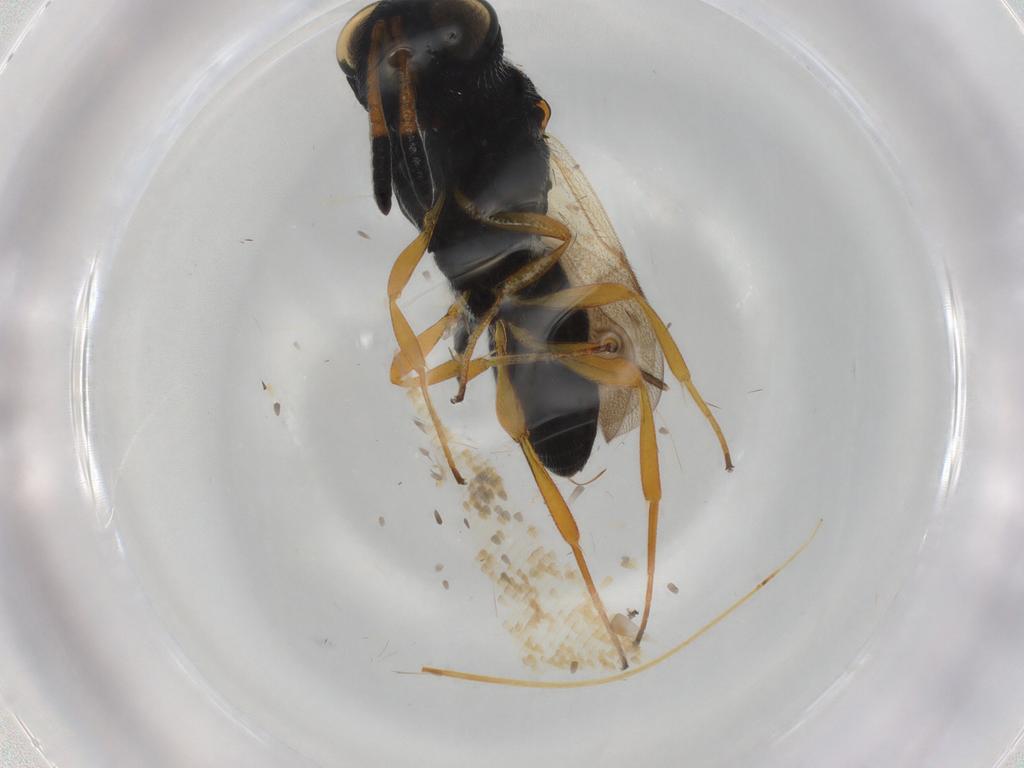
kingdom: Animalia
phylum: Arthropoda
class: Insecta
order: Hymenoptera
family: Scelionidae
